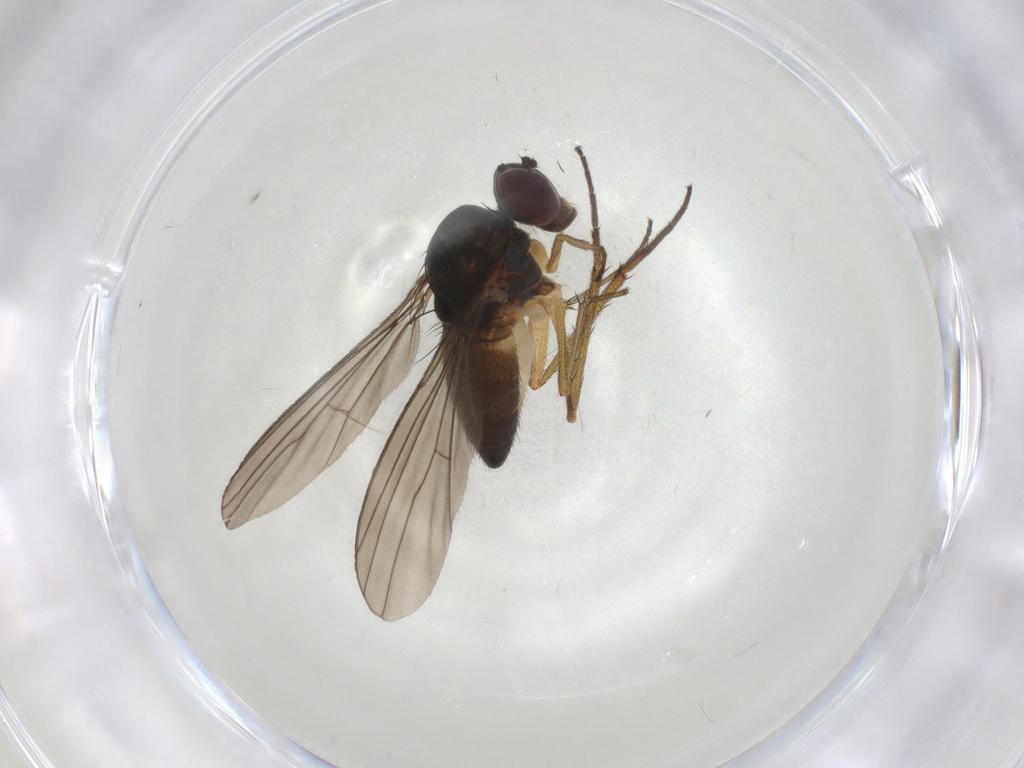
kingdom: Animalia
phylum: Arthropoda
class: Insecta
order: Diptera
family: Dolichopodidae
